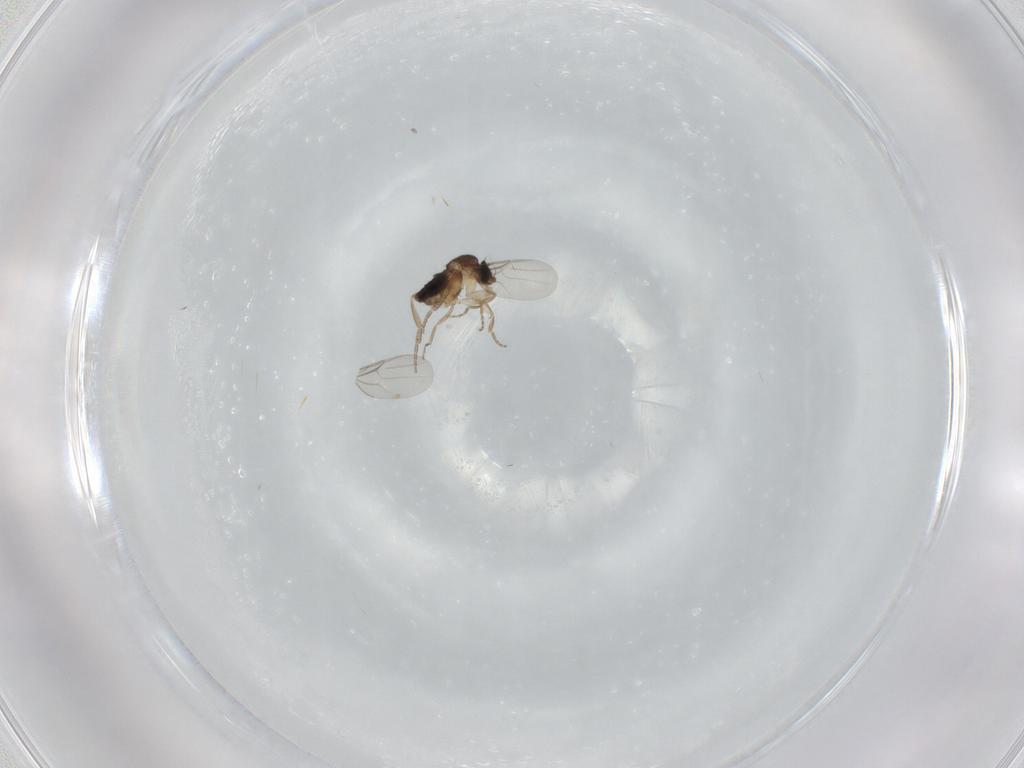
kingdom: Animalia
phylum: Arthropoda
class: Insecta
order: Diptera
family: Phoridae
